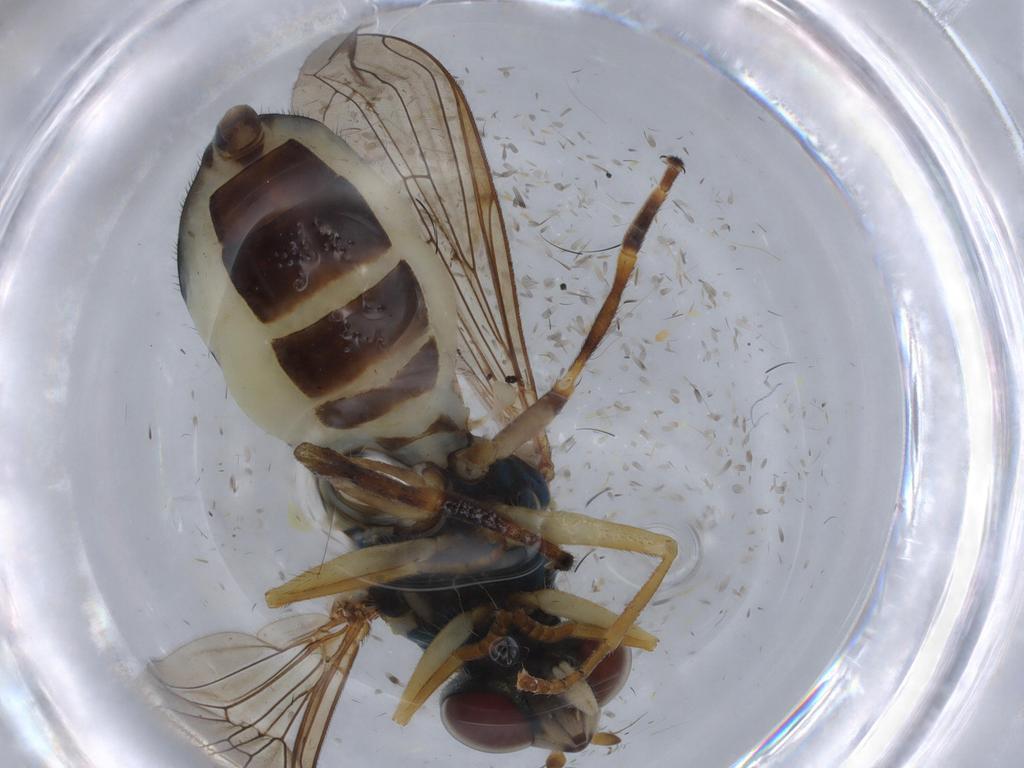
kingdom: Animalia
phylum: Arthropoda
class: Insecta
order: Diptera
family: Syrphidae
